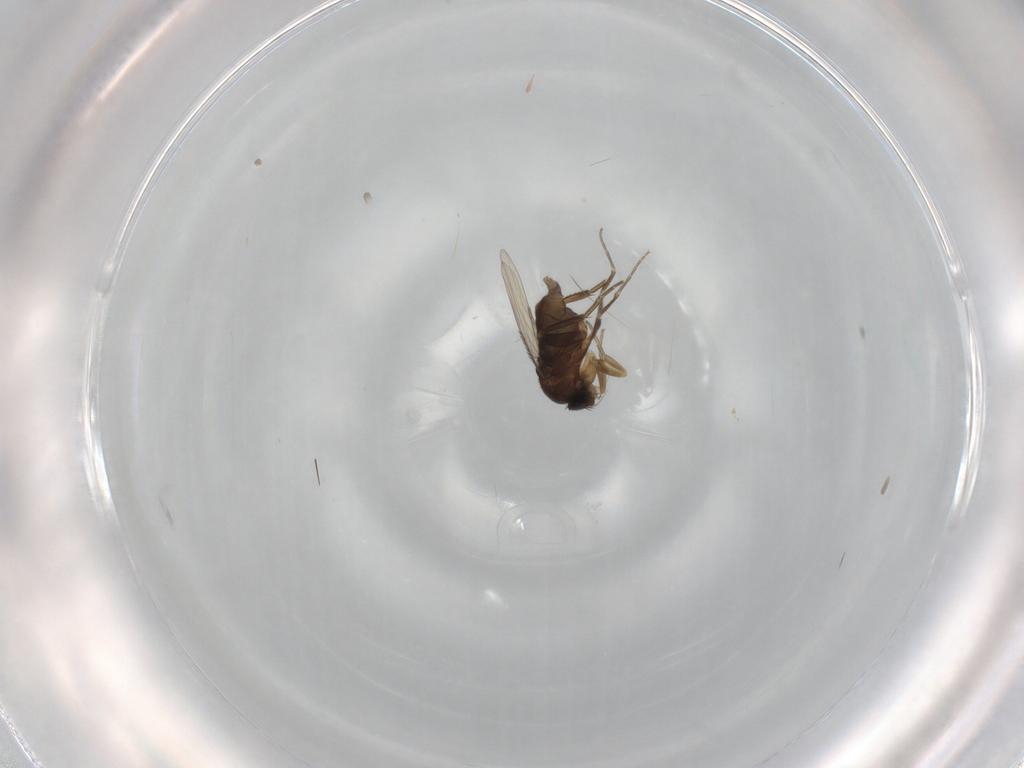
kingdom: Animalia
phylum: Arthropoda
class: Insecta
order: Diptera
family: Phoridae
